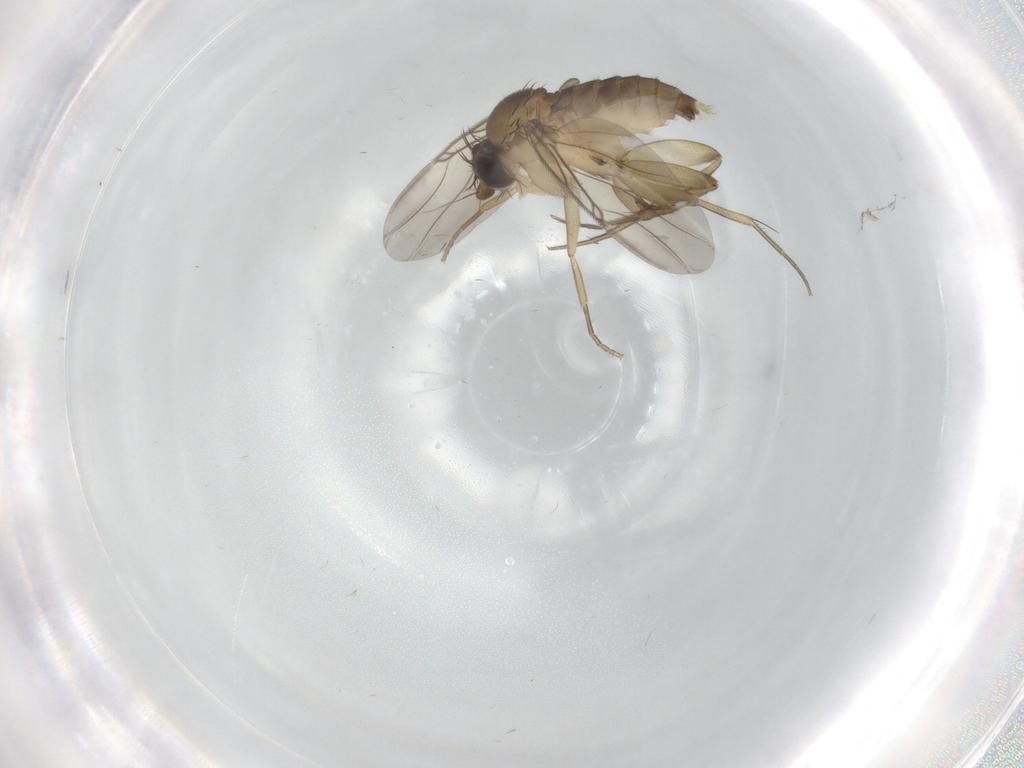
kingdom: Animalia
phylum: Arthropoda
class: Insecta
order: Diptera
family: Phoridae
